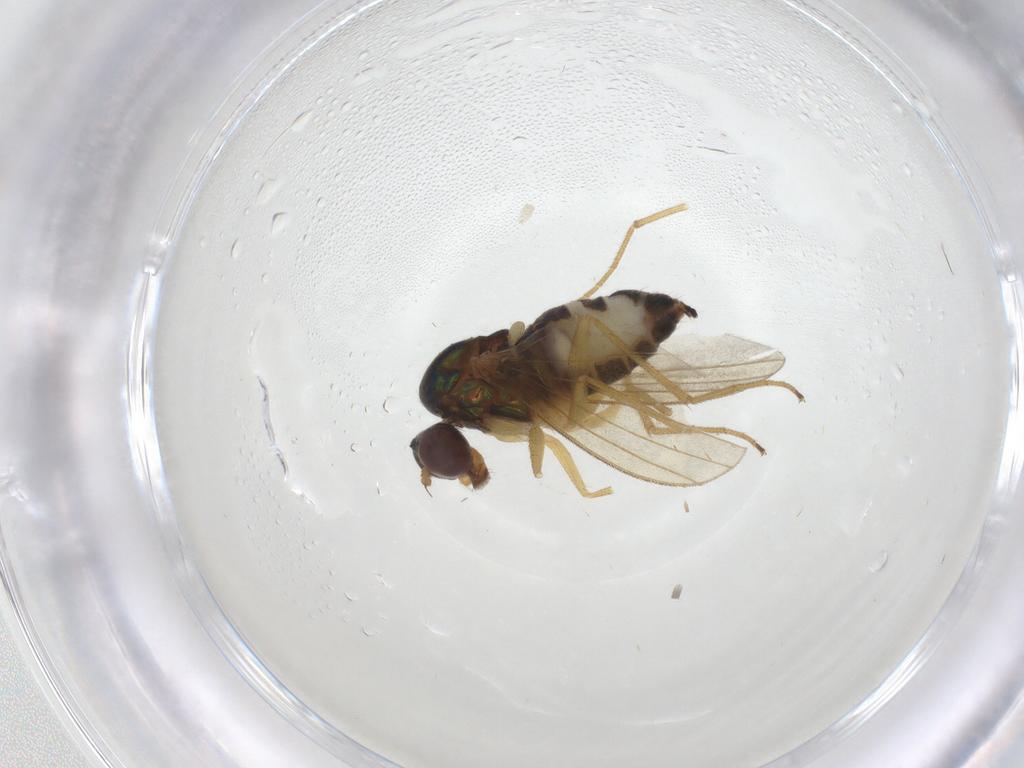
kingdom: Animalia
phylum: Arthropoda
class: Insecta
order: Diptera
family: Dolichopodidae
